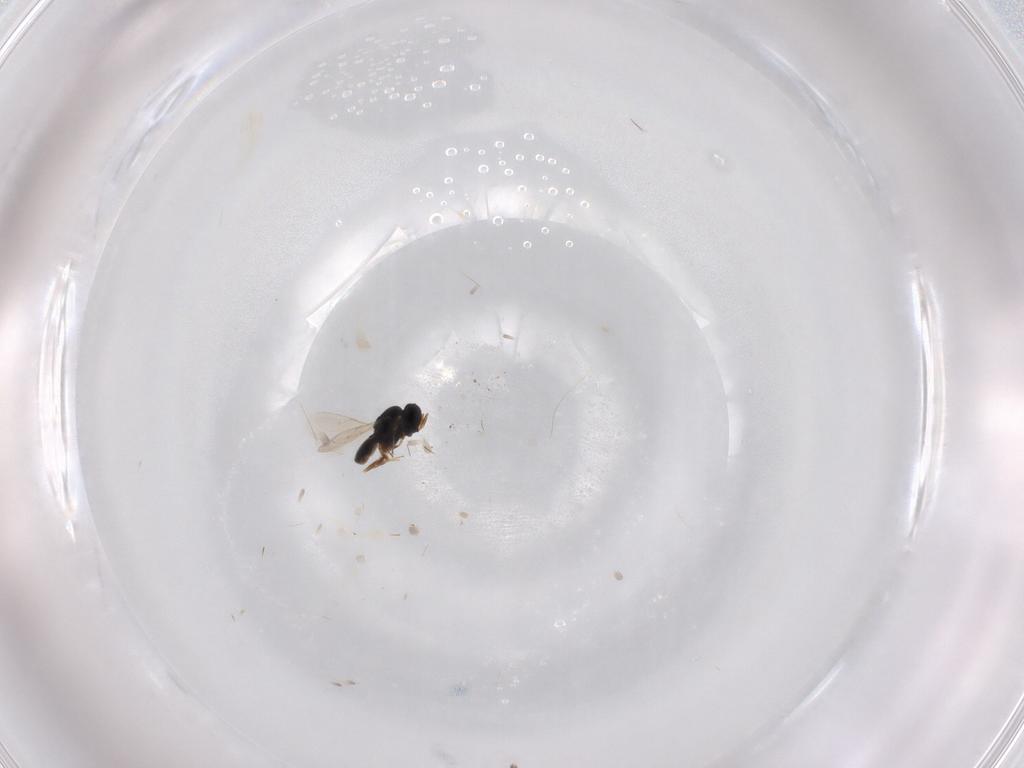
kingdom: Animalia
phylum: Arthropoda
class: Insecta
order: Hymenoptera
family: Scelionidae
